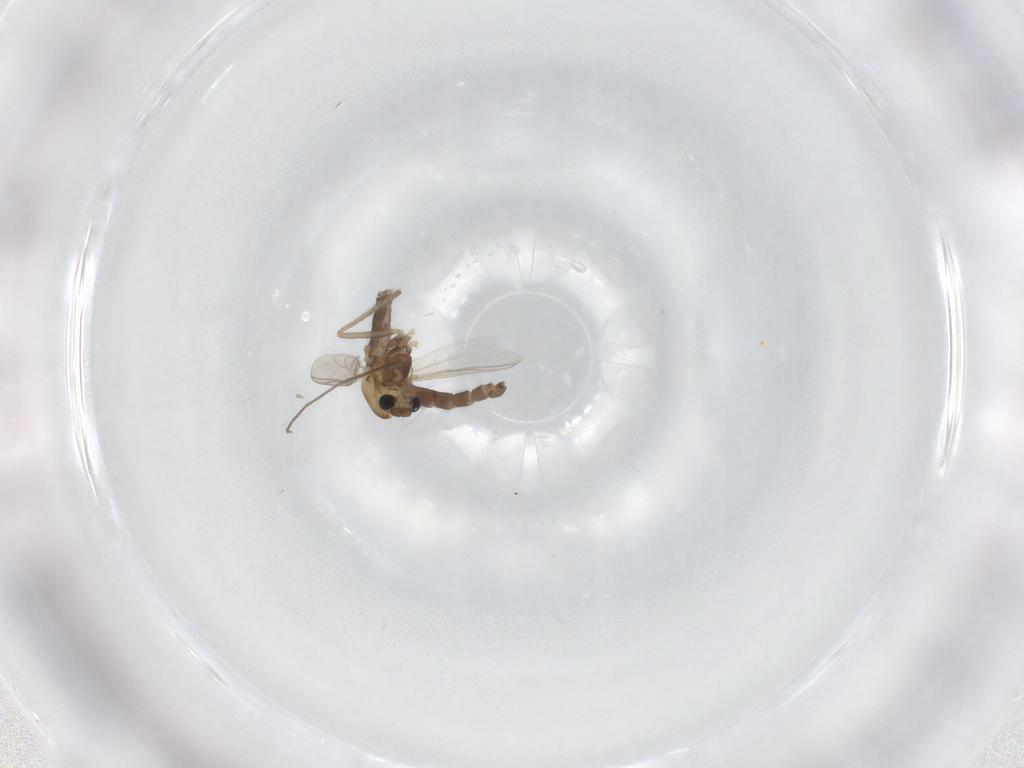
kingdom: Animalia
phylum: Arthropoda
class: Insecta
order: Diptera
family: Chironomidae
